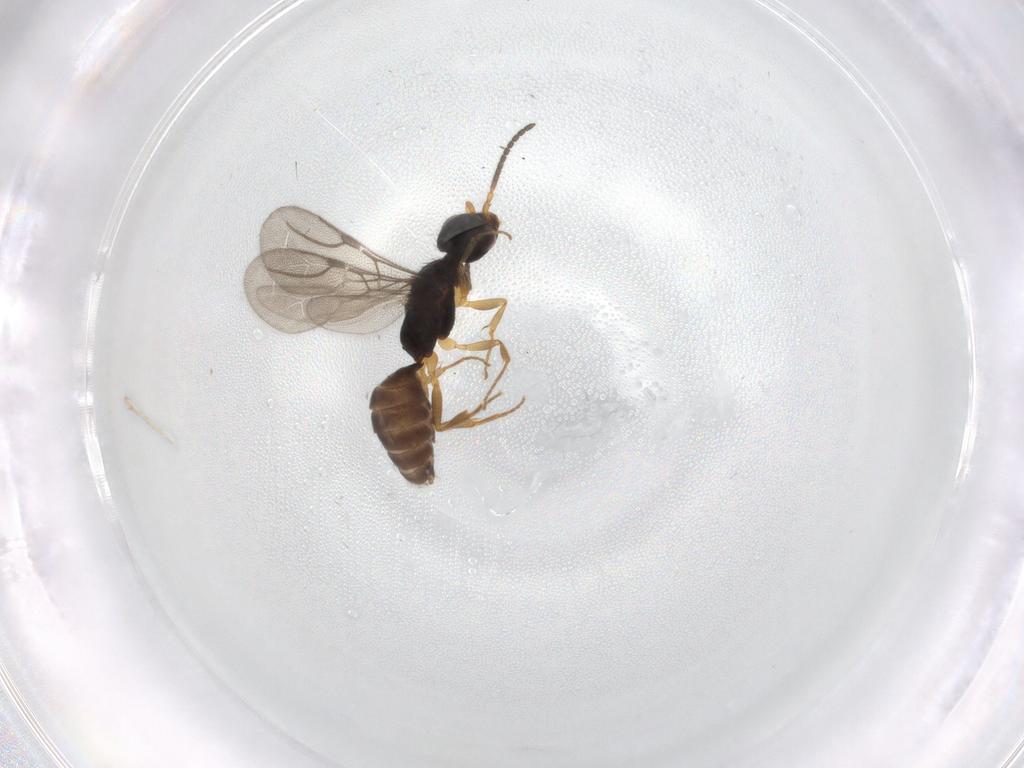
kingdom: Animalia
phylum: Arthropoda
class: Insecta
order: Hymenoptera
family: Bethylidae
